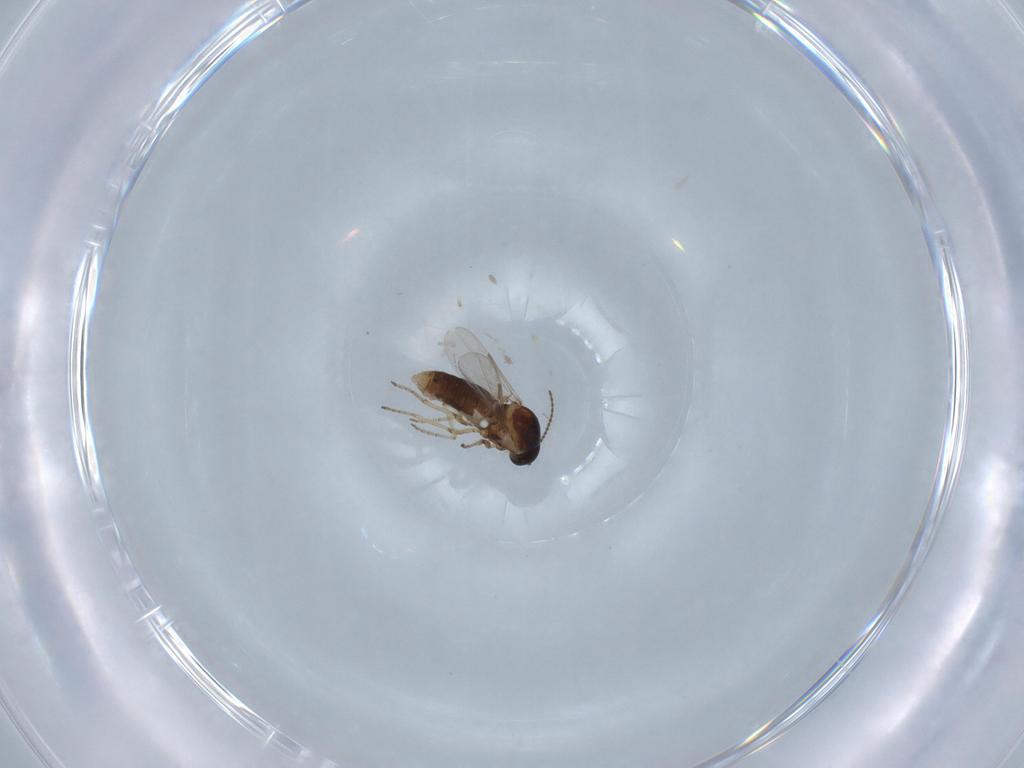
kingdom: Animalia
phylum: Arthropoda
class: Insecta
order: Diptera
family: Ceratopogonidae
